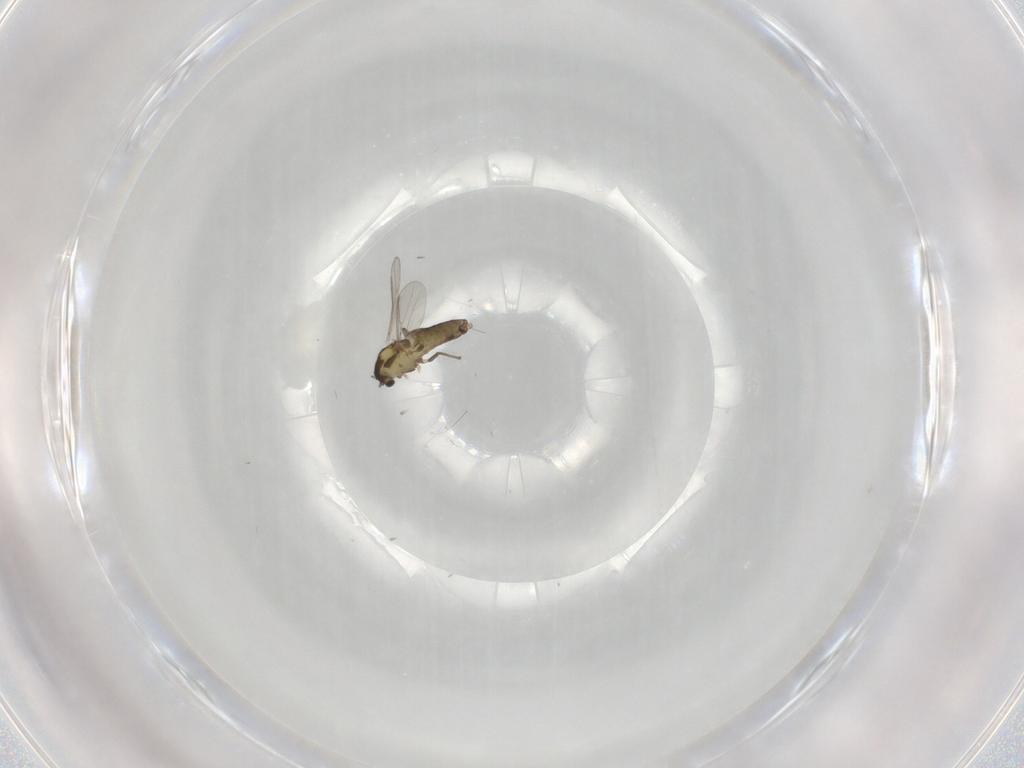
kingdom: Animalia
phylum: Arthropoda
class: Insecta
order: Diptera
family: Chironomidae
